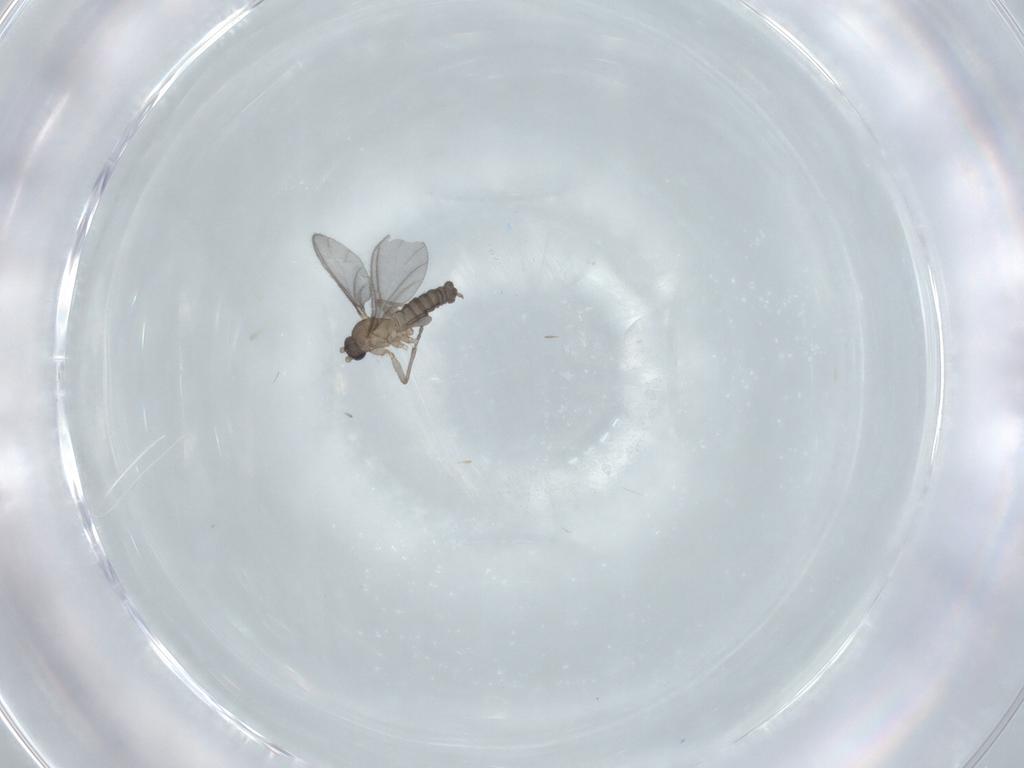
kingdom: Animalia
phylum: Arthropoda
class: Insecta
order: Diptera
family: Sciaridae
